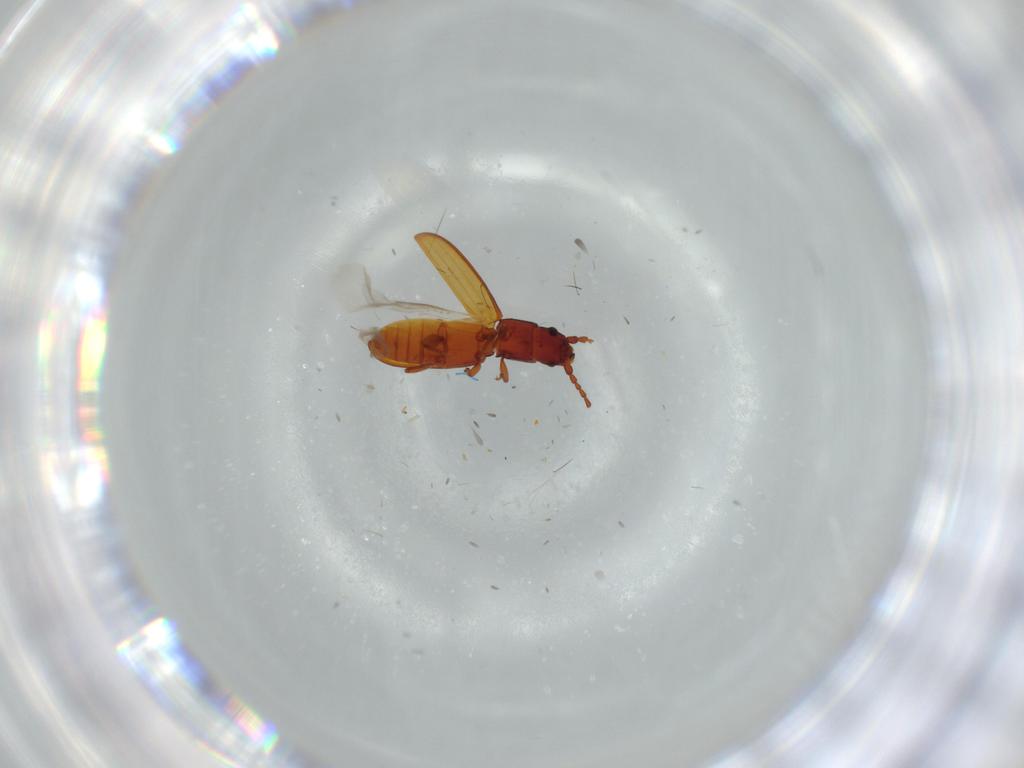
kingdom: Animalia
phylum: Arthropoda
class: Insecta
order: Coleoptera
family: Laemophloeidae
